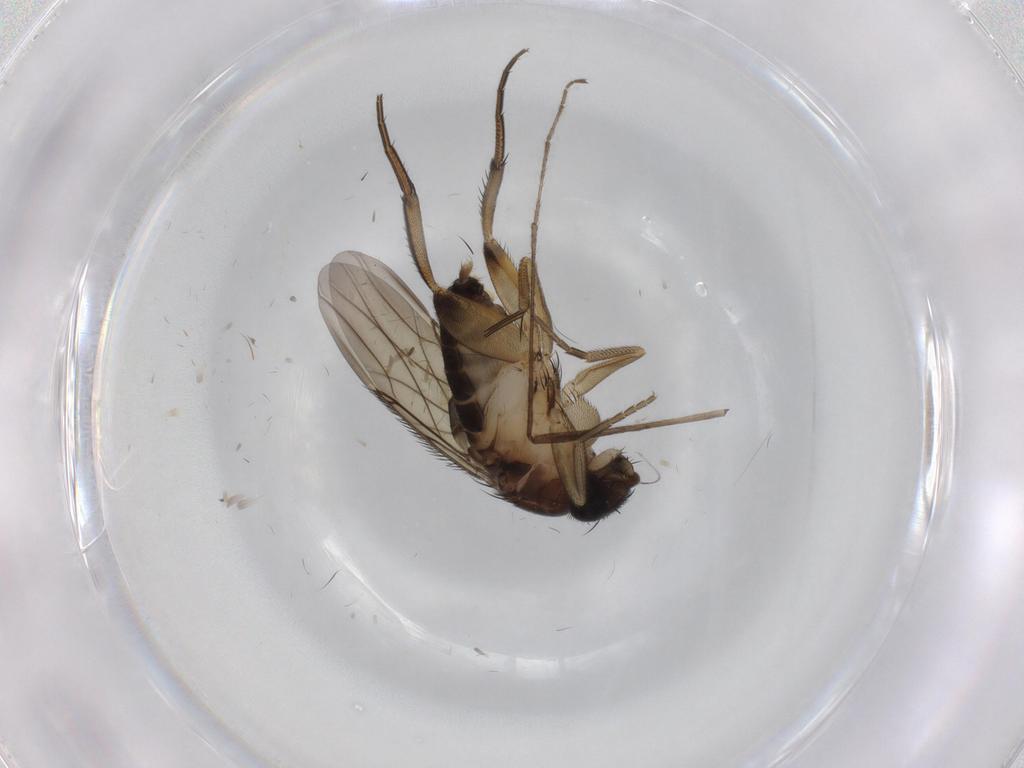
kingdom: Animalia
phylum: Arthropoda
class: Insecta
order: Diptera
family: Phoridae
